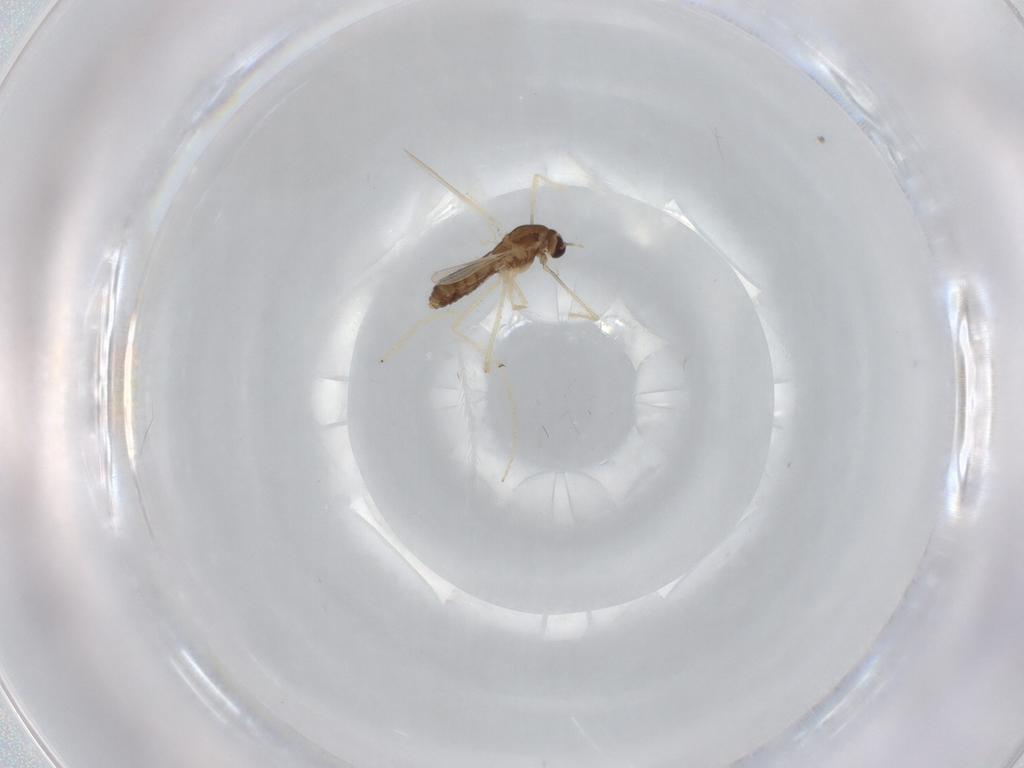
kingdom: Animalia
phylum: Arthropoda
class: Insecta
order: Diptera
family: Chironomidae
